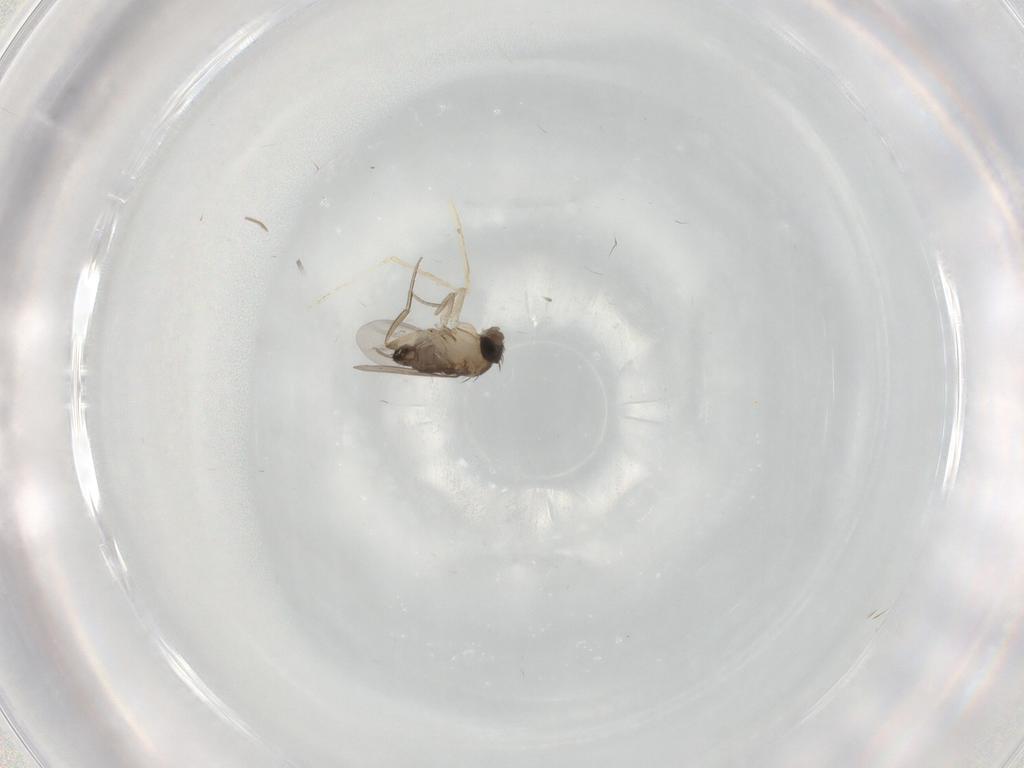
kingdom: Animalia
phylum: Arthropoda
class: Insecta
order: Diptera
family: Phoridae
